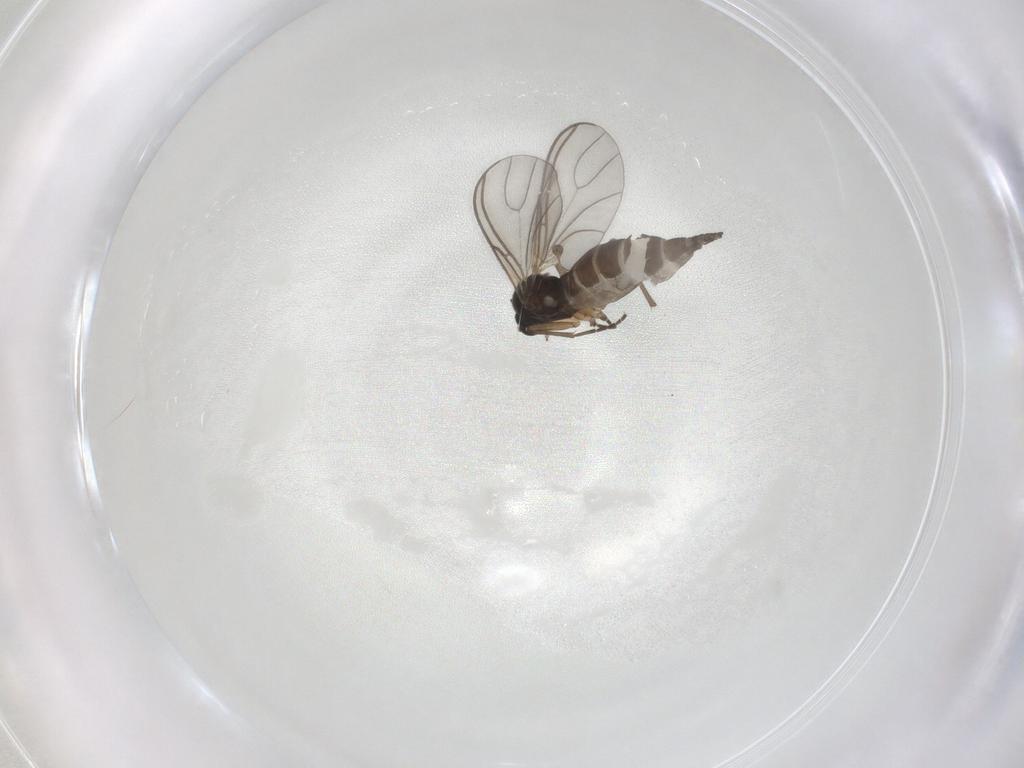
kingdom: Animalia
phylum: Arthropoda
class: Insecta
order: Diptera
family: Sciaridae
